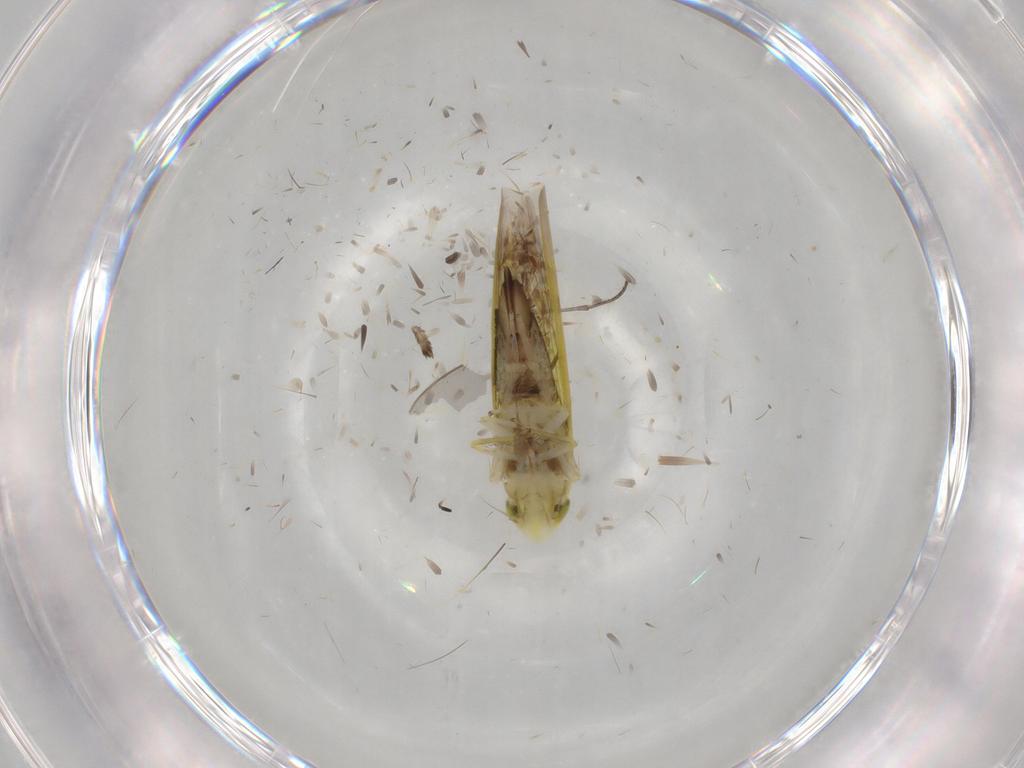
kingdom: Animalia
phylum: Arthropoda
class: Insecta
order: Hemiptera
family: Cicadellidae
